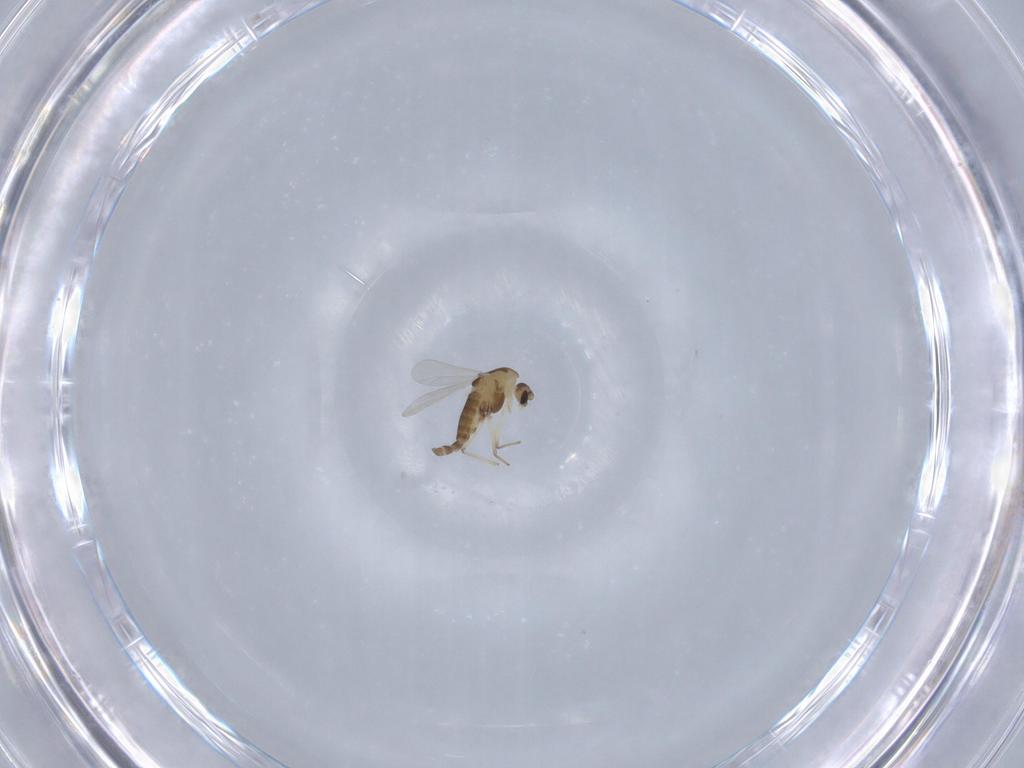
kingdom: Animalia
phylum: Arthropoda
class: Insecta
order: Diptera
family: Chironomidae
